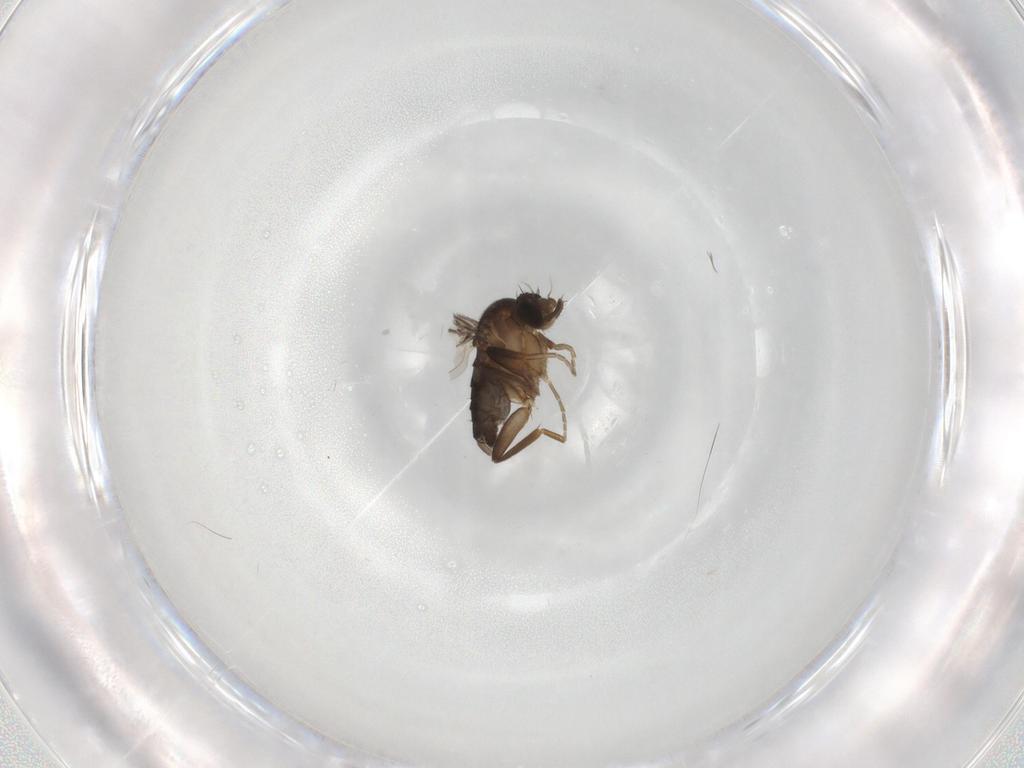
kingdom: Animalia
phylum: Arthropoda
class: Insecta
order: Diptera
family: Phoridae
